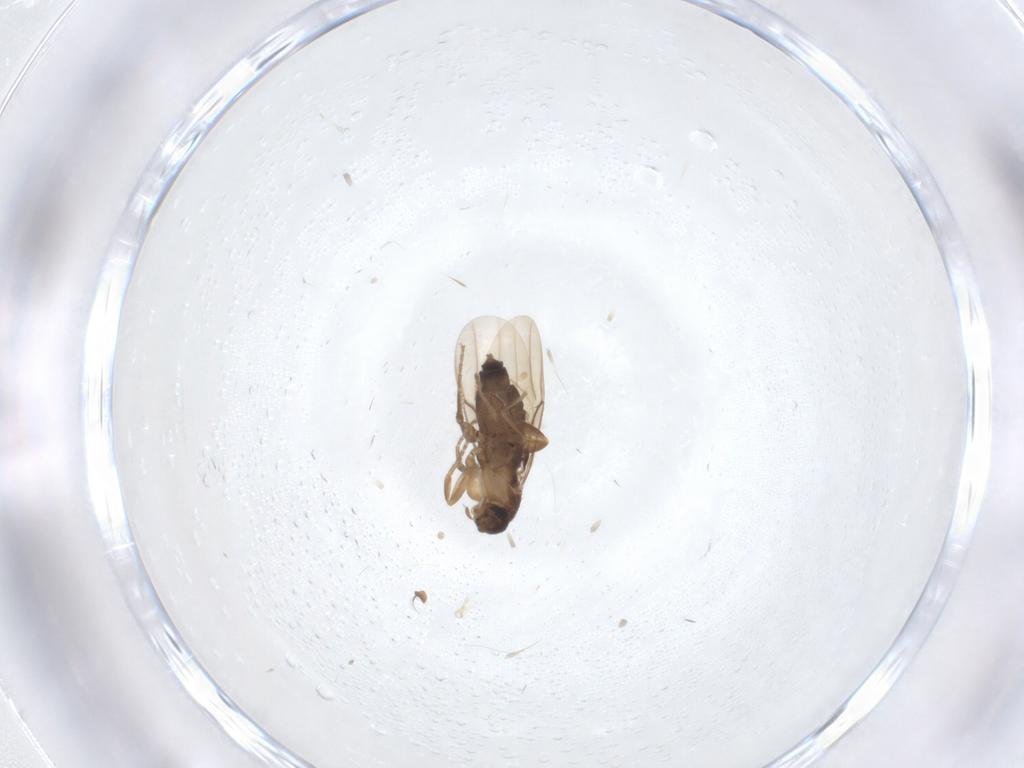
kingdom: Animalia
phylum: Arthropoda
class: Insecta
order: Diptera
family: Phoridae
